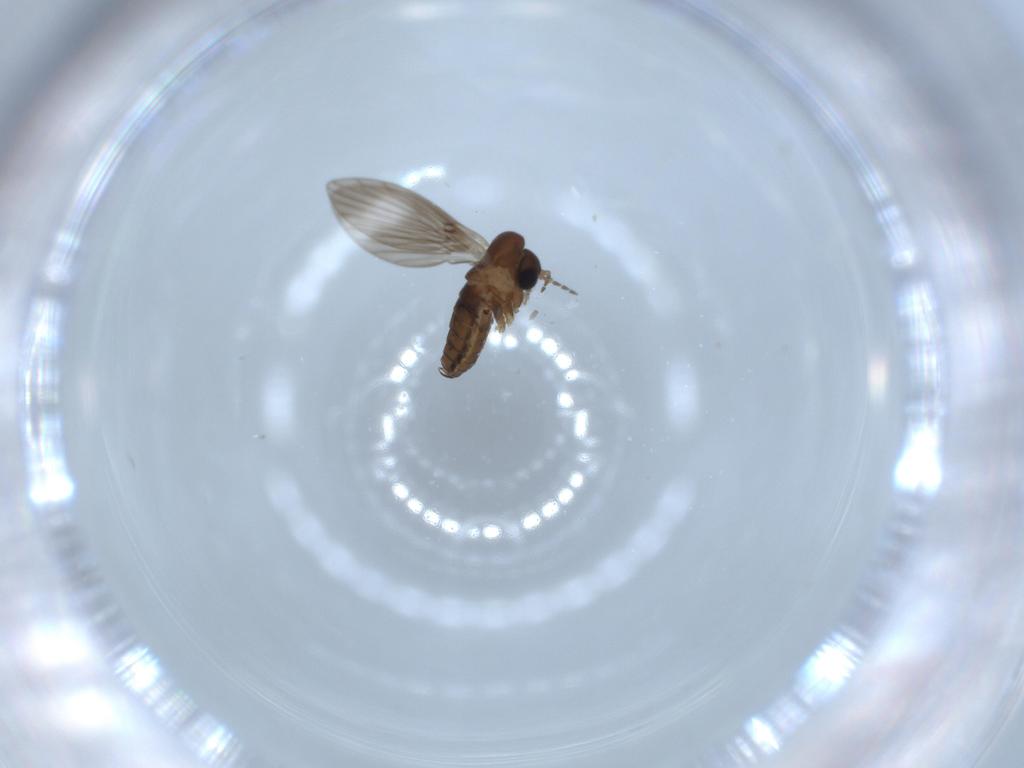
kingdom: Animalia
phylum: Arthropoda
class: Insecta
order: Diptera
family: Psychodidae
